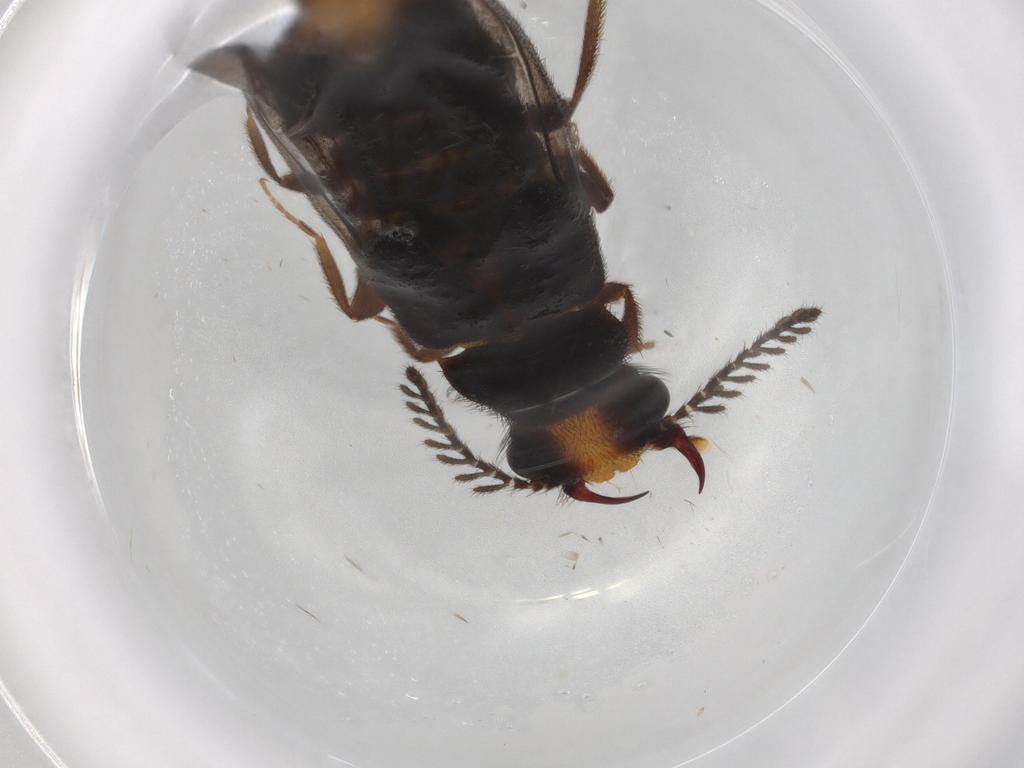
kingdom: Animalia
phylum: Arthropoda
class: Insecta
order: Coleoptera
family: Phengodidae
